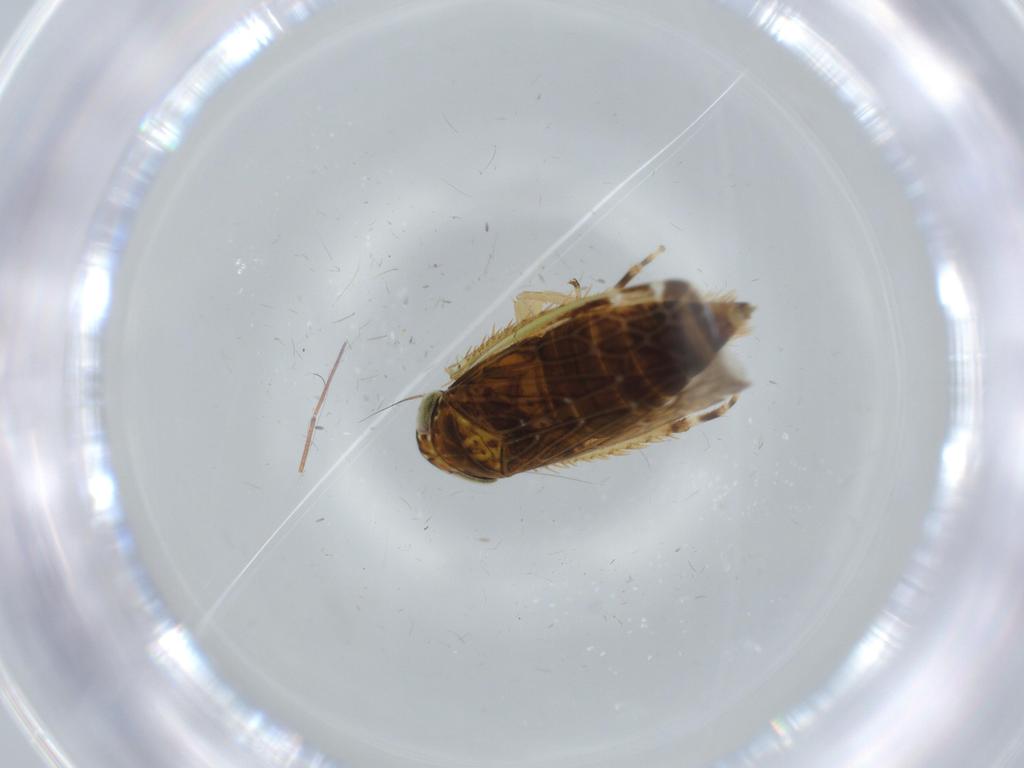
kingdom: Animalia
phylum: Arthropoda
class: Insecta
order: Hemiptera
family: Cicadellidae
